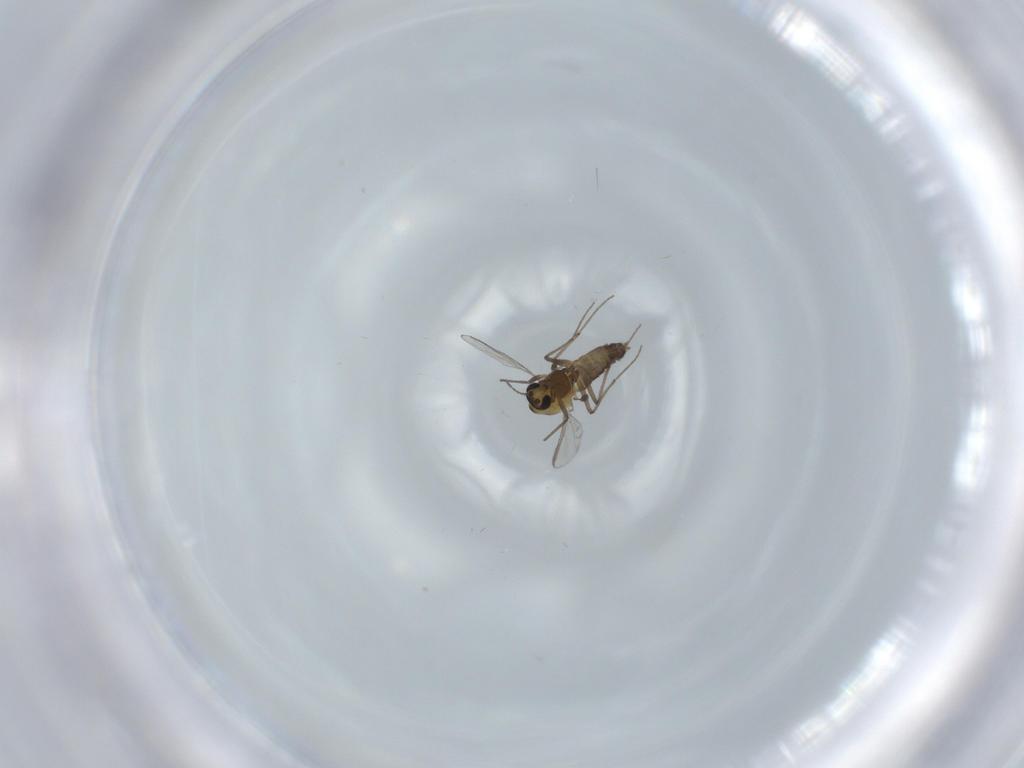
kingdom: Animalia
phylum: Arthropoda
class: Insecta
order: Diptera
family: Chironomidae
